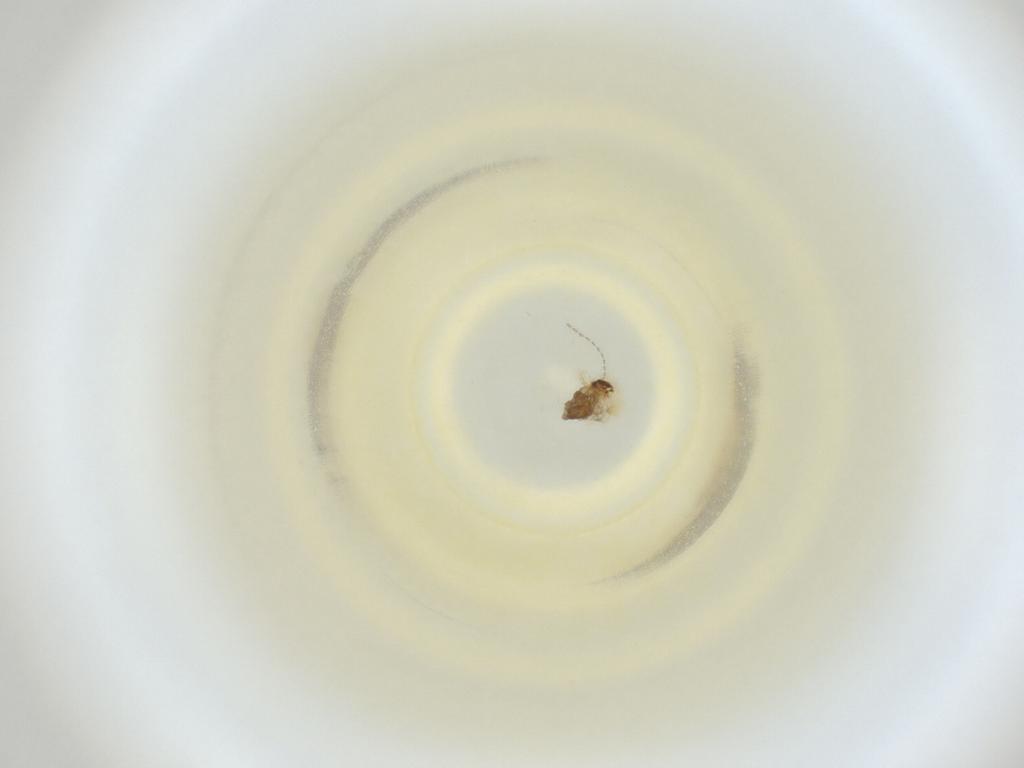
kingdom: Animalia
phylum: Arthropoda
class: Insecta
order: Diptera
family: Cecidomyiidae
